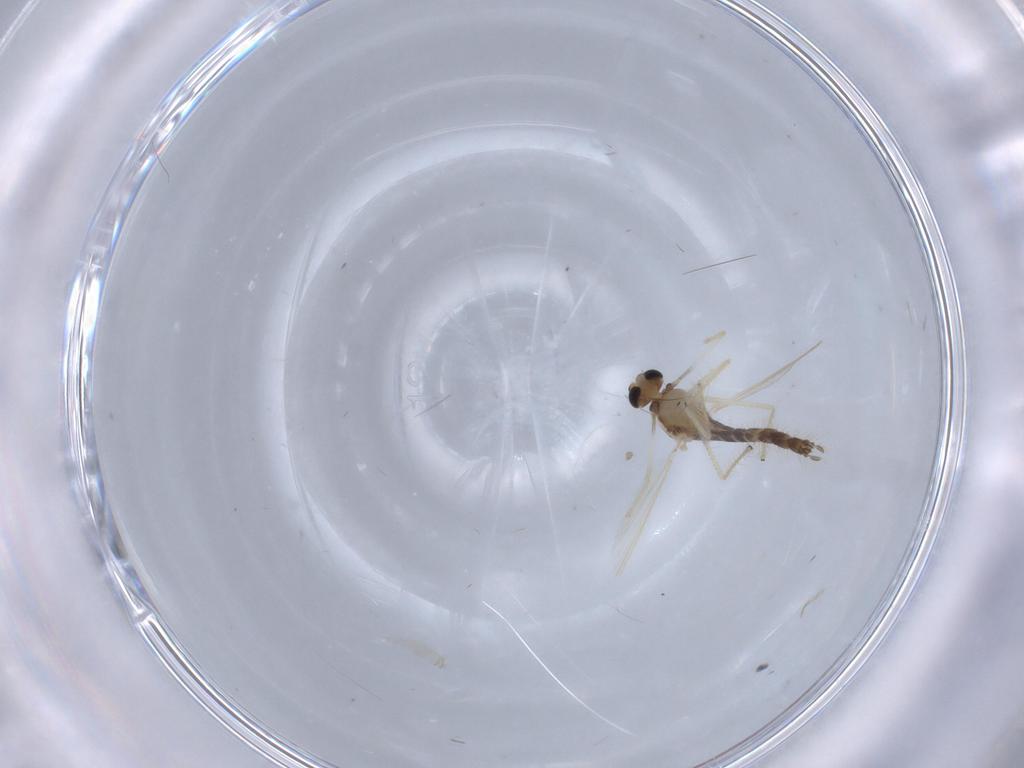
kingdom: Animalia
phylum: Arthropoda
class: Insecta
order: Diptera
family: Chironomidae
